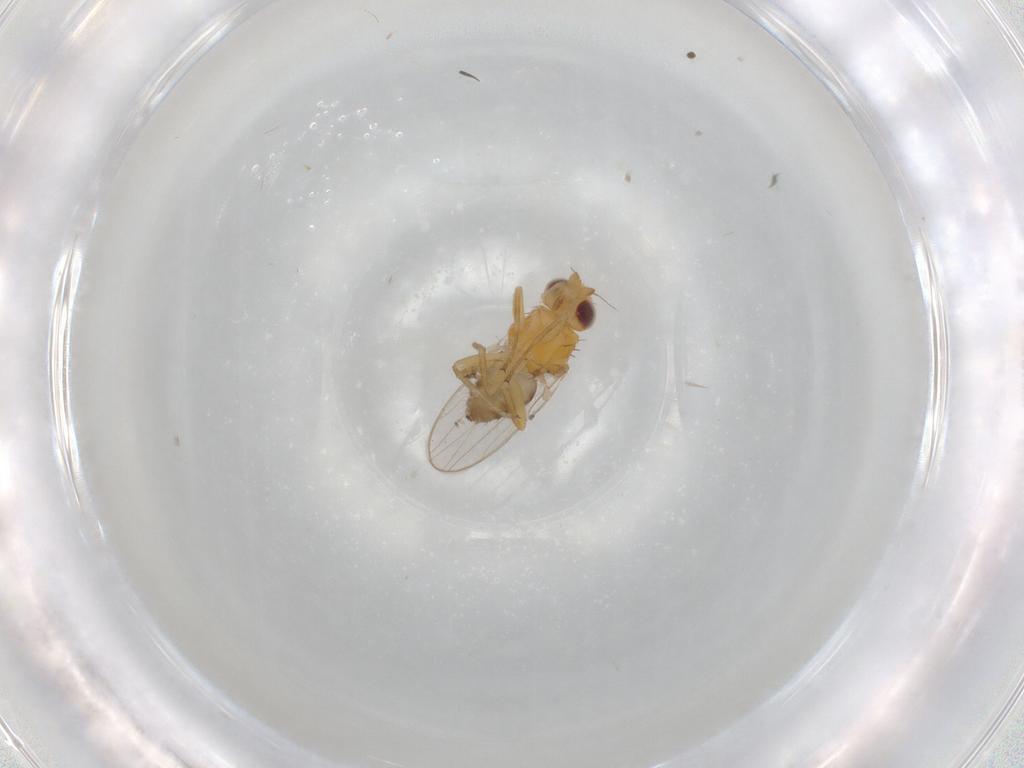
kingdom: Animalia
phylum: Arthropoda
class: Insecta
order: Diptera
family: Chloropidae
